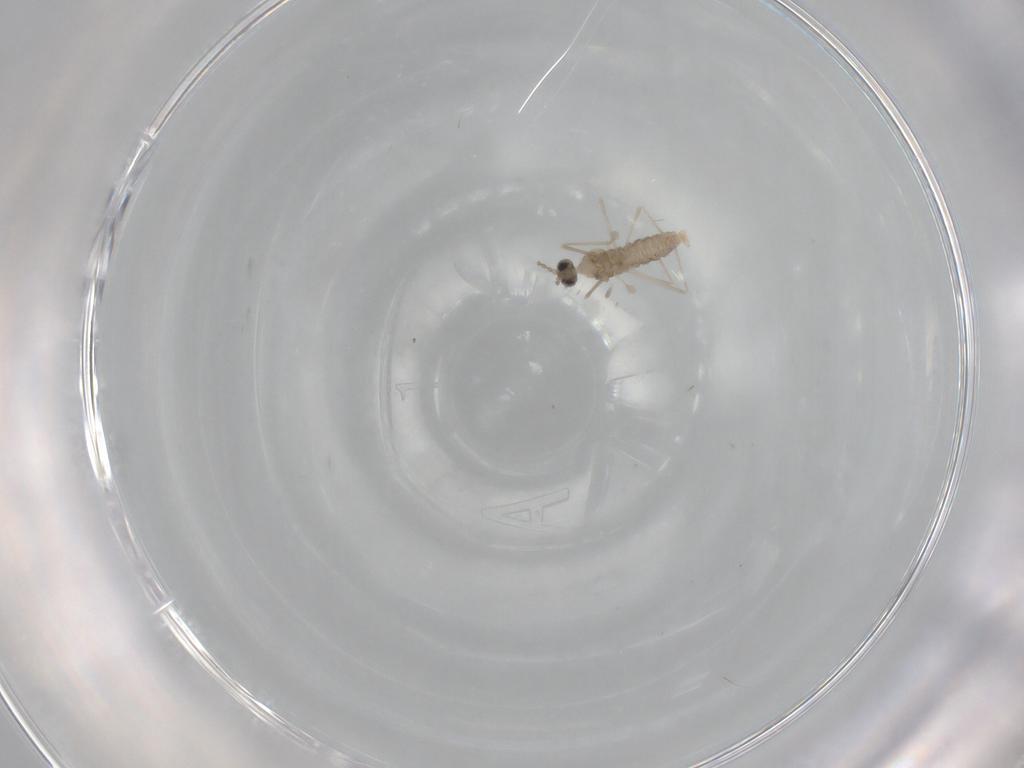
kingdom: Animalia
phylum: Arthropoda
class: Insecta
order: Diptera
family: Cecidomyiidae
